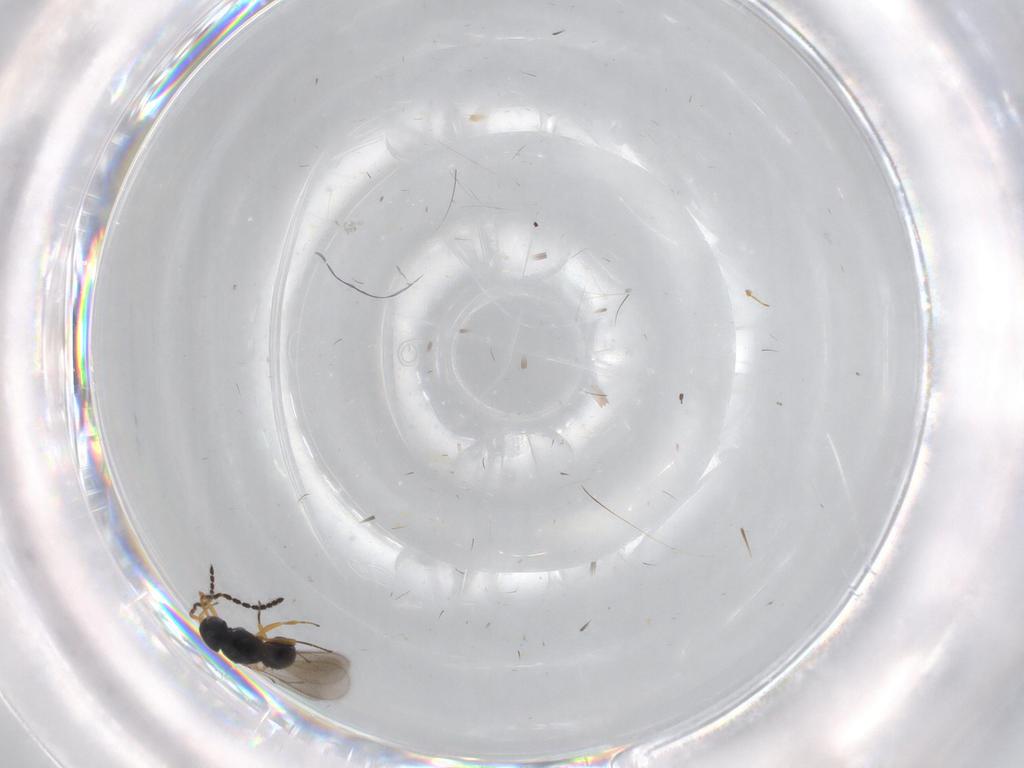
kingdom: Animalia
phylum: Arthropoda
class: Insecta
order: Hymenoptera
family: Scelionidae
